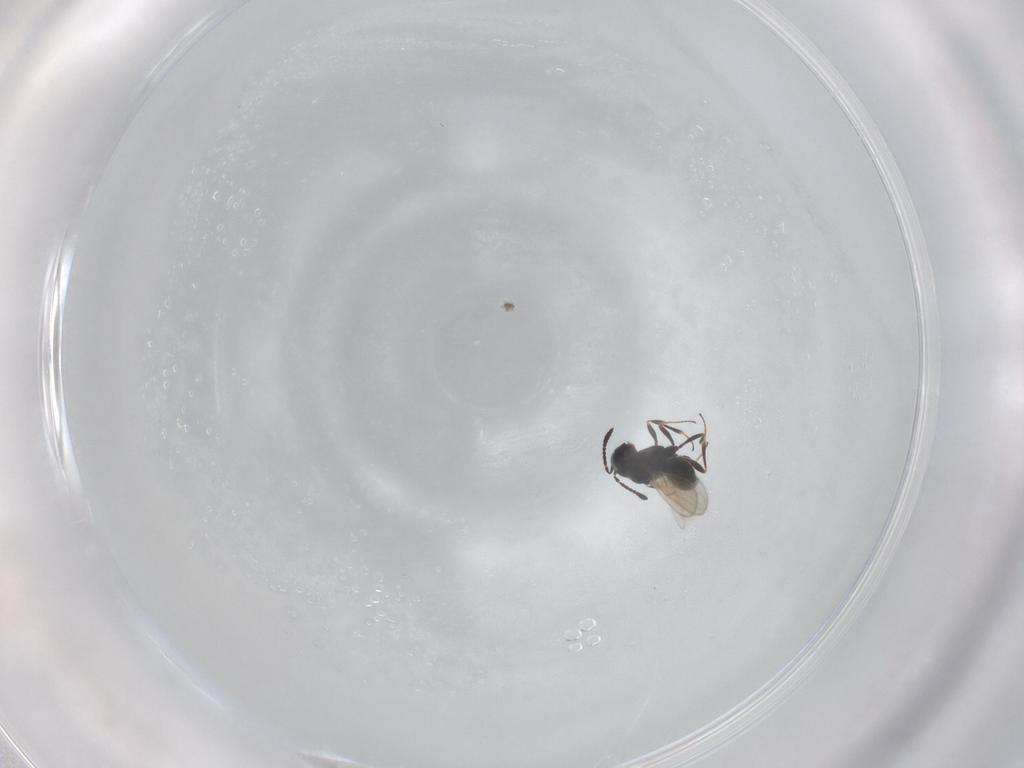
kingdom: Animalia
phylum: Arthropoda
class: Insecta
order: Hymenoptera
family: Scelionidae
